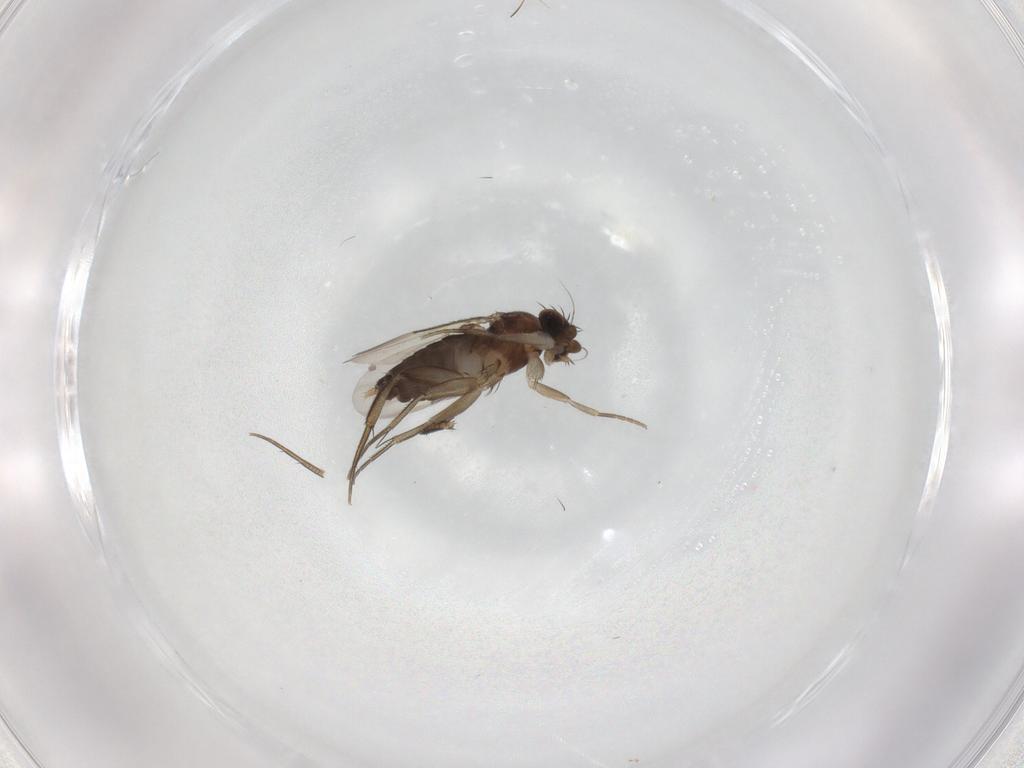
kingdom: Animalia
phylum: Arthropoda
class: Insecta
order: Diptera
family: Phoridae
